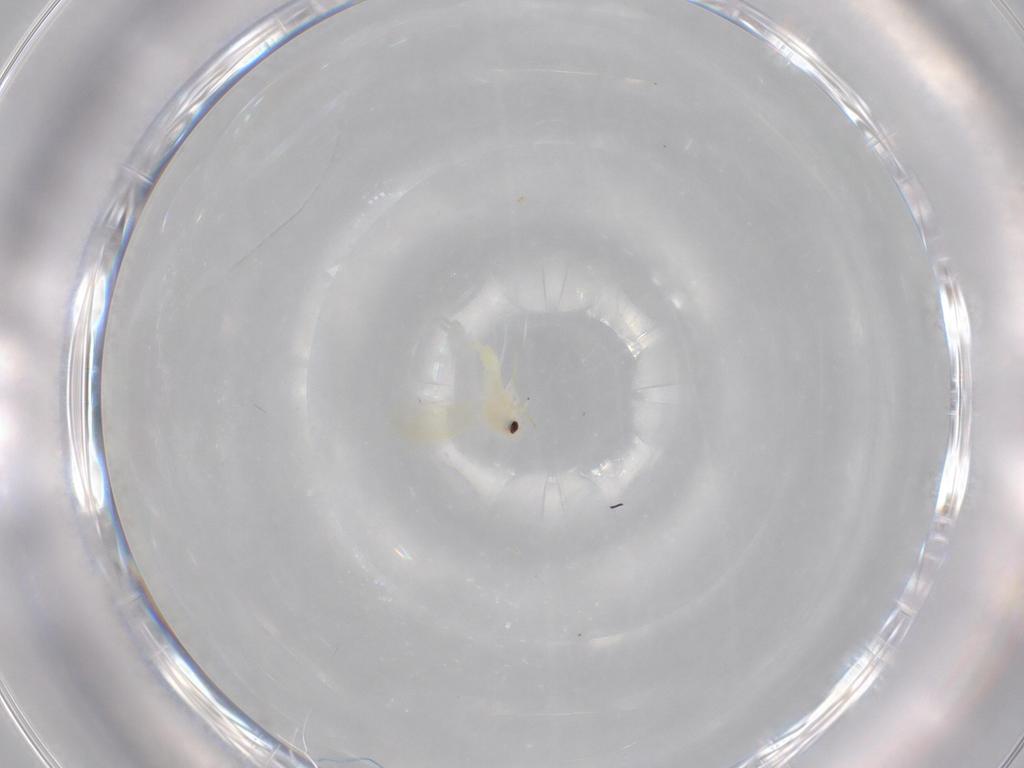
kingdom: Animalia
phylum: Arthropoda
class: Insecta
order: Hemiptera
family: Aleyrodidae
